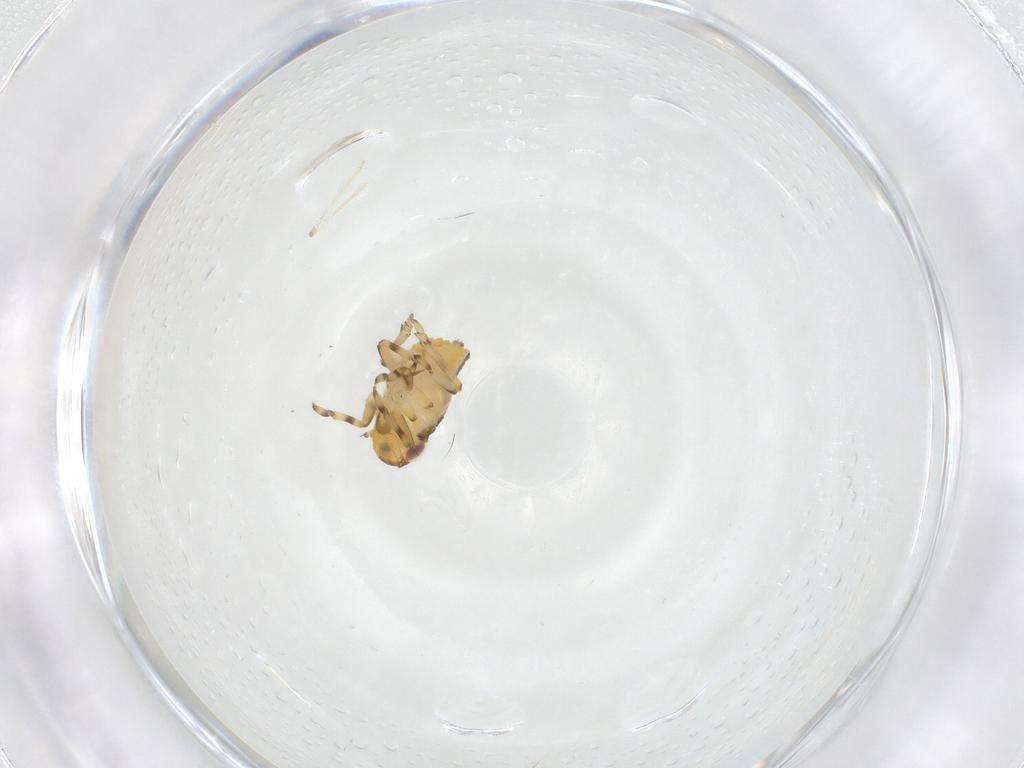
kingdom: Animalia
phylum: Arthropoda
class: Insecta
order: Hemiptera
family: Issidae
